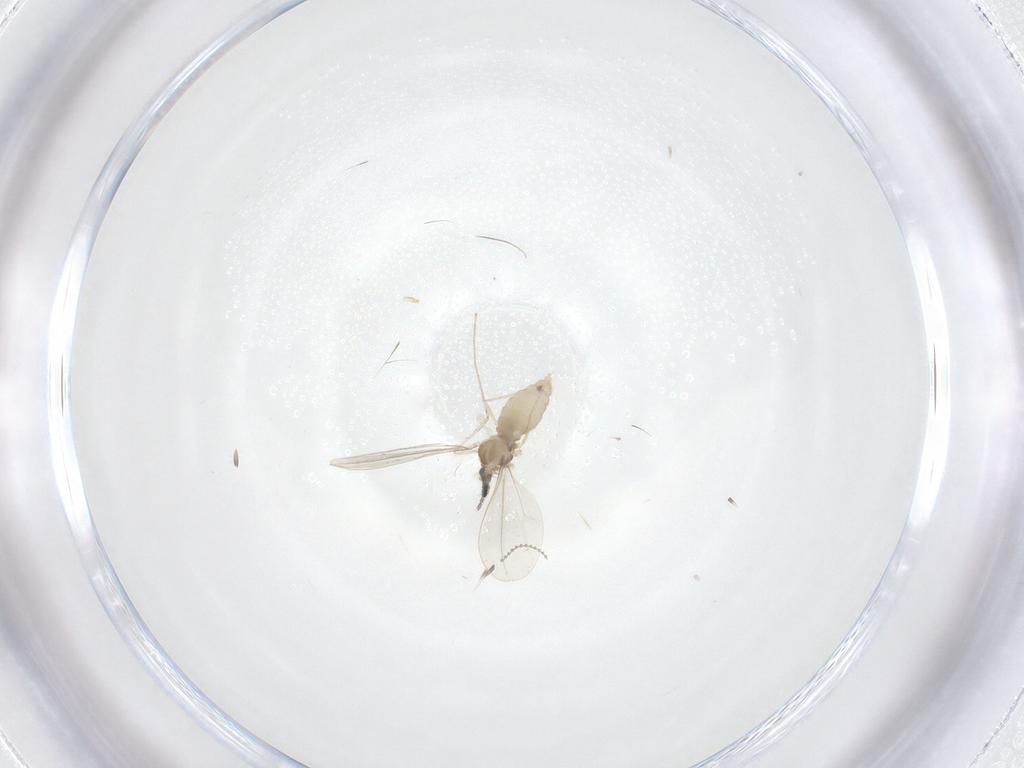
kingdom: Animalia
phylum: Arthropoda
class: Insecta
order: Diptera
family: Cecidomyiidae
